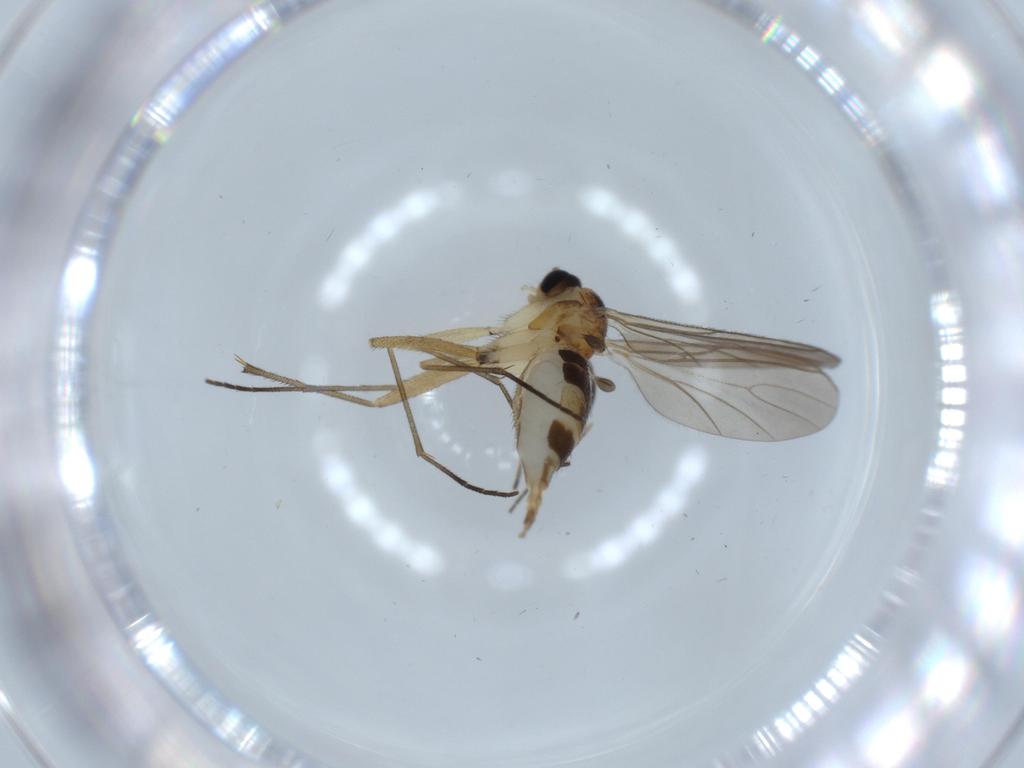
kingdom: Animalia
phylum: Arthropoda
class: Insecta
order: Diptera
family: Sciaridae
